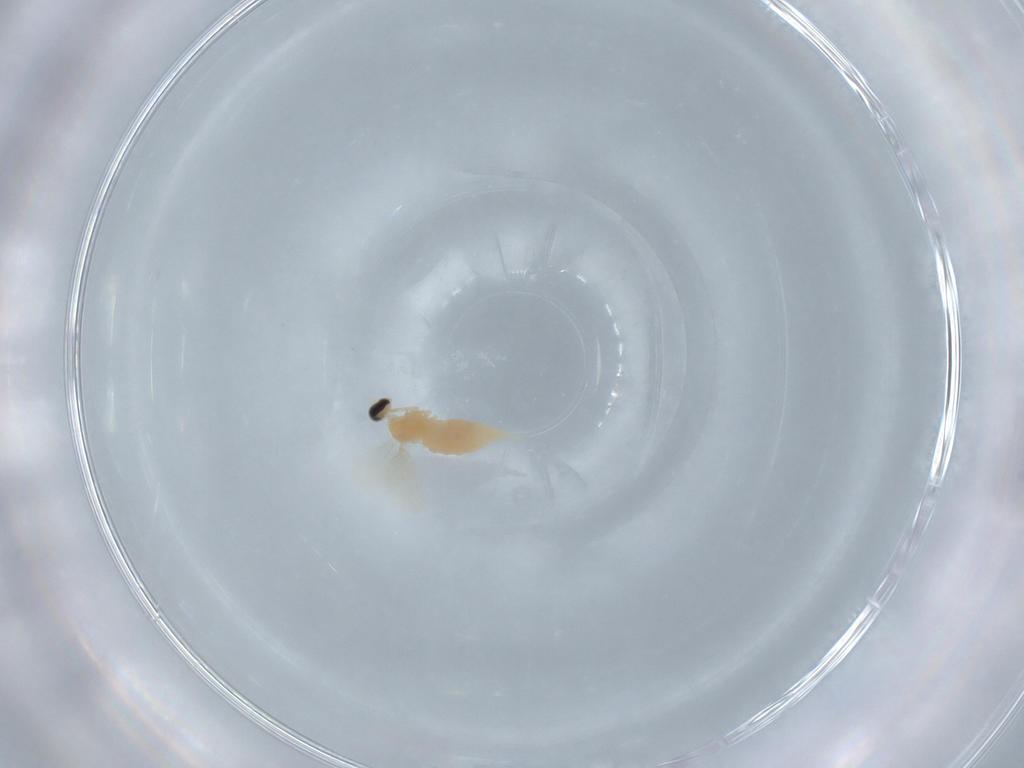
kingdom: Animalia
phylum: Arthropoda
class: Insecta
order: Diptera
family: Cecidomyiidae
